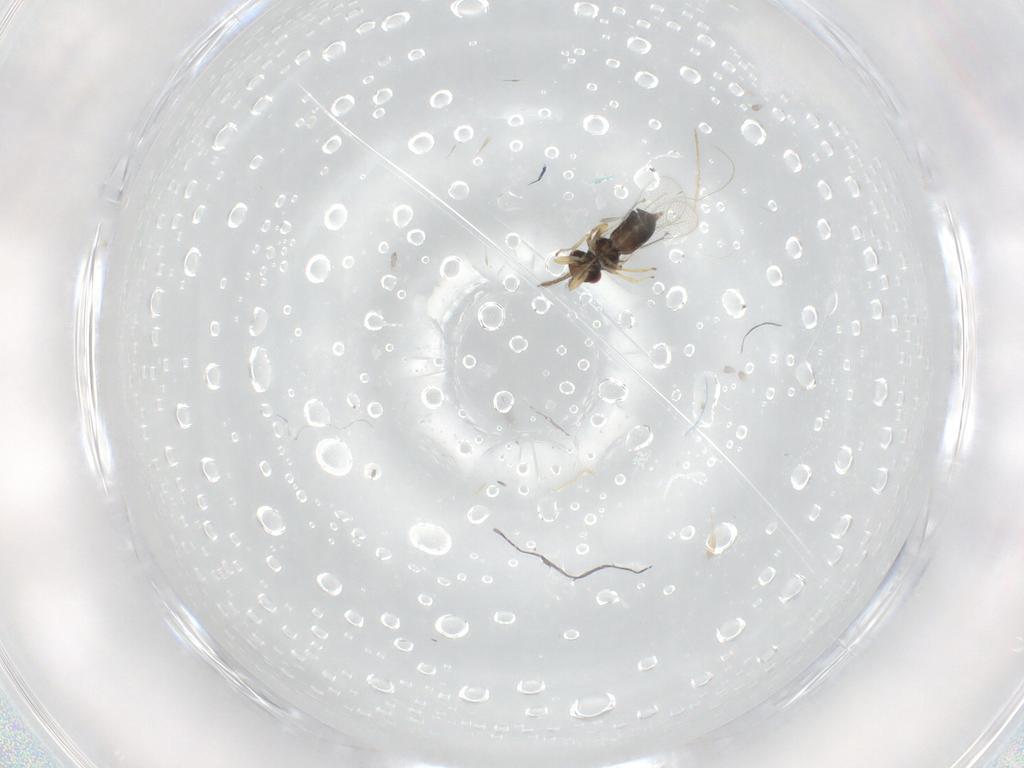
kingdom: Animalia
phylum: Arthropoda
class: Insecta
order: Hymenoptera
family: Eulophidae
